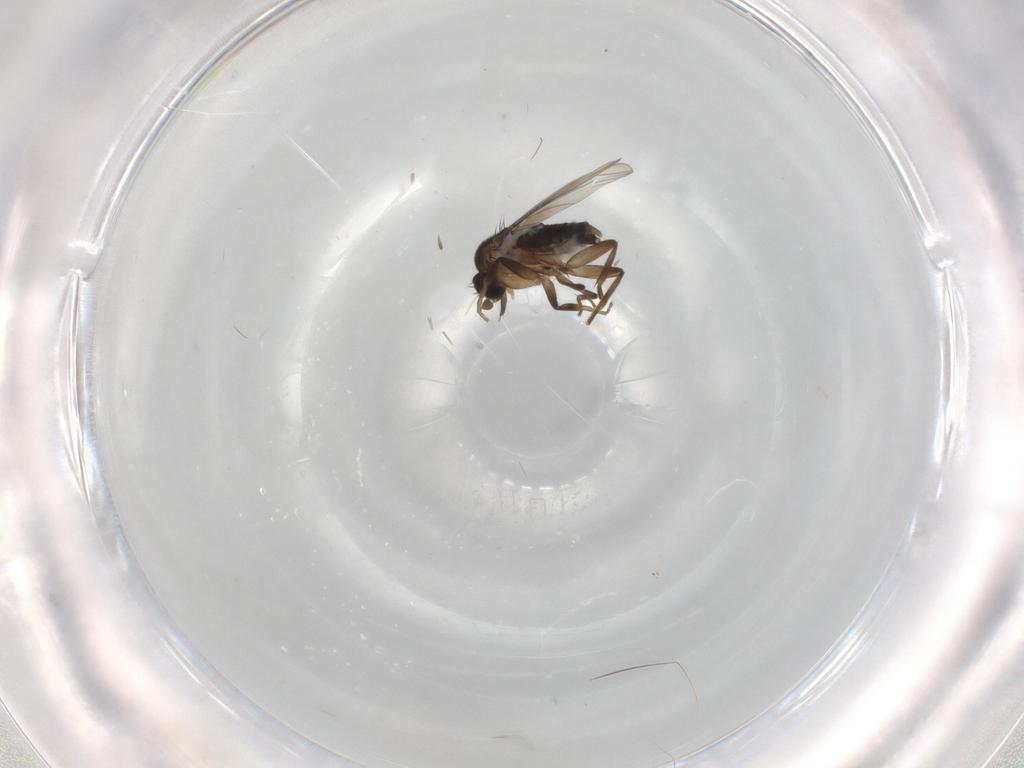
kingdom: Animalia
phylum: Arthropoda
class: Insecta
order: Diptera
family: Phoridae
